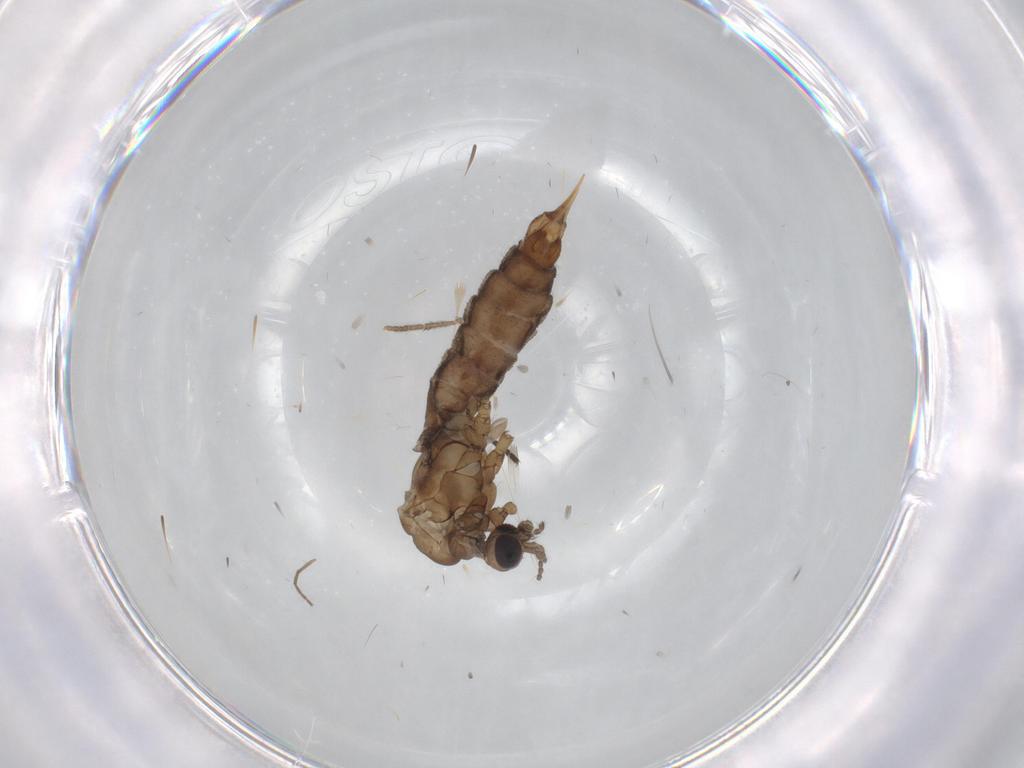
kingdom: Animalia
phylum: Arthropoda
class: Insecta
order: Diptera
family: Limoniidae
